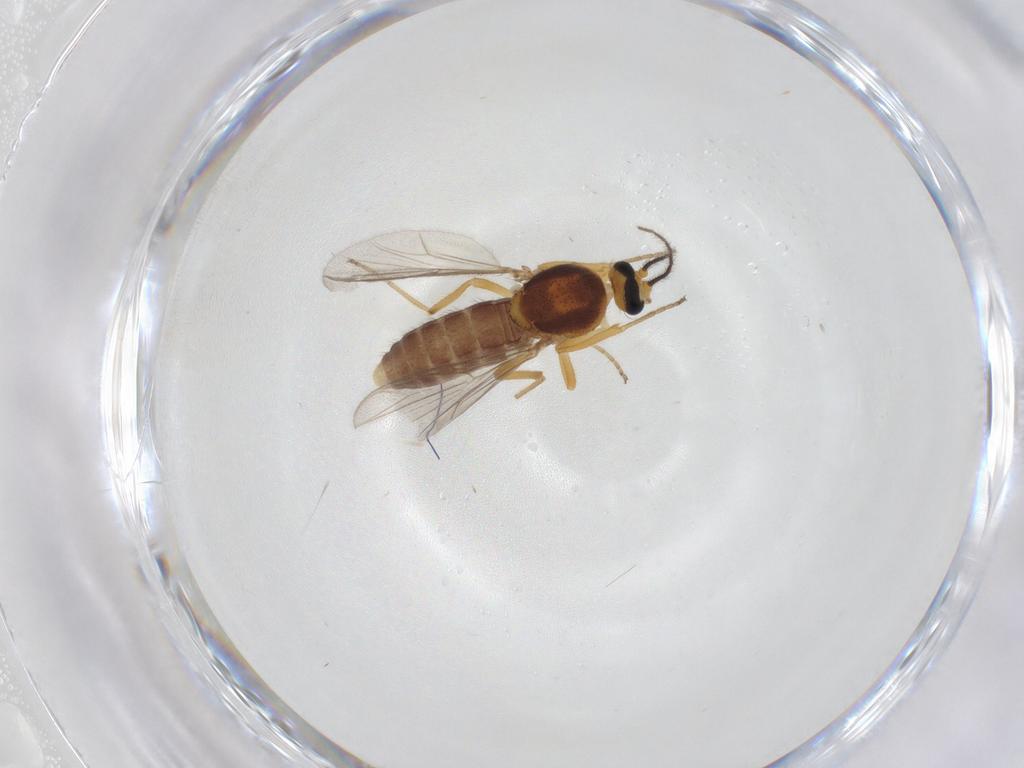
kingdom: Animalia
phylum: Arthropoda
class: Insecta
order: Diptera
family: Ceratopogonidae
